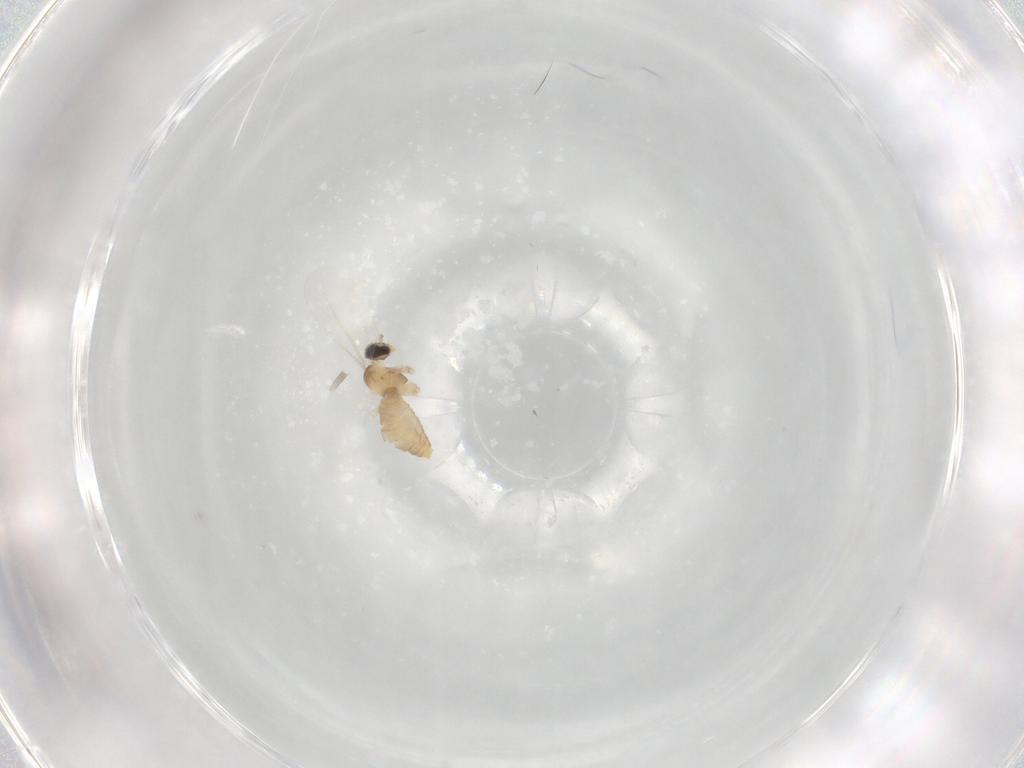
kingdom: Animalia
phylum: Arthropoda
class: Insecta
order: Diptera
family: Cecidomyiidae
